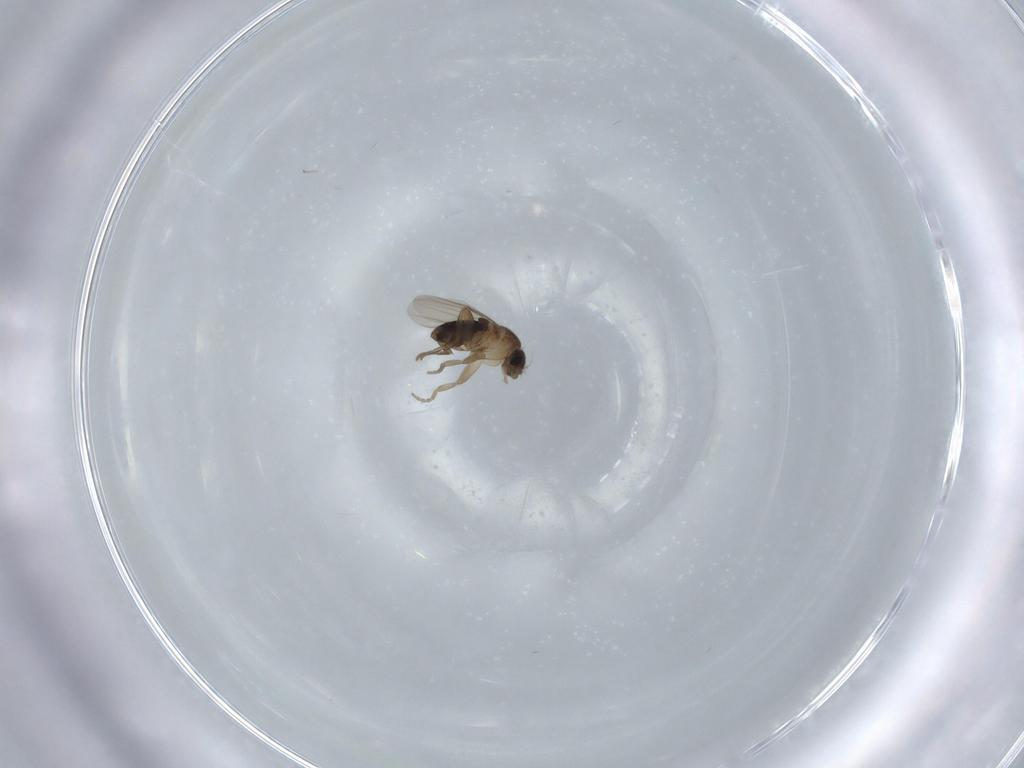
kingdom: Animalia
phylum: Arthropoda
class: Insecta
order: Diptera
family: Phoridae
